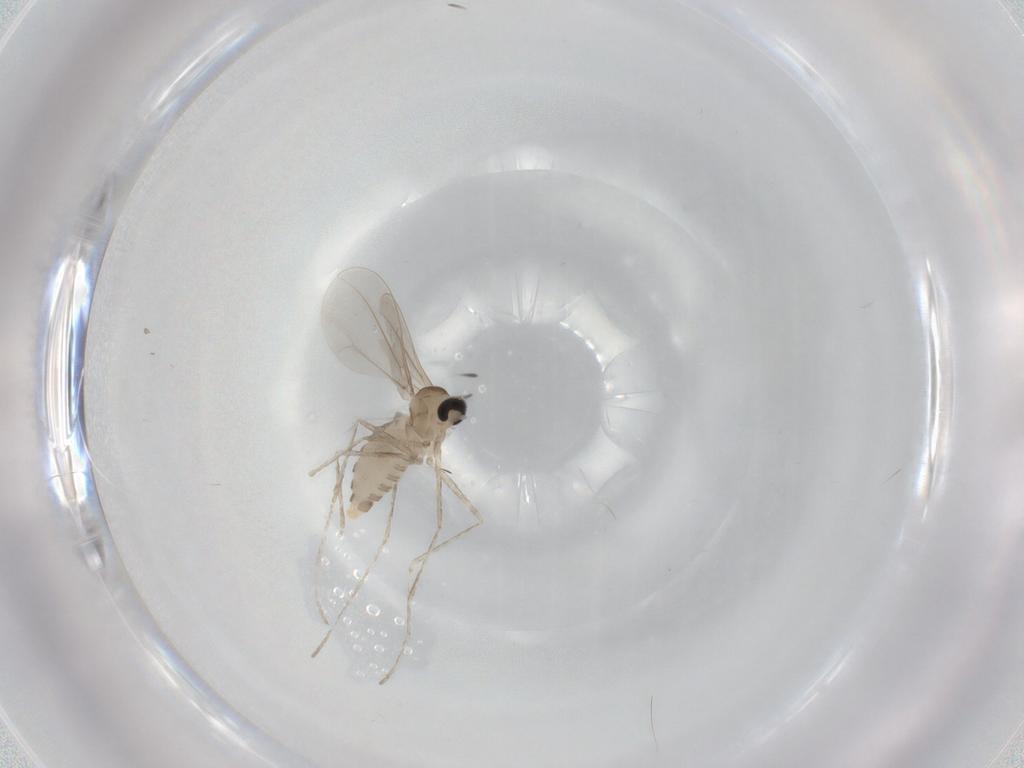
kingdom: Animalia
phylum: Arthropoda
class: Insecta
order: Diptera
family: Cecidomyiidae
